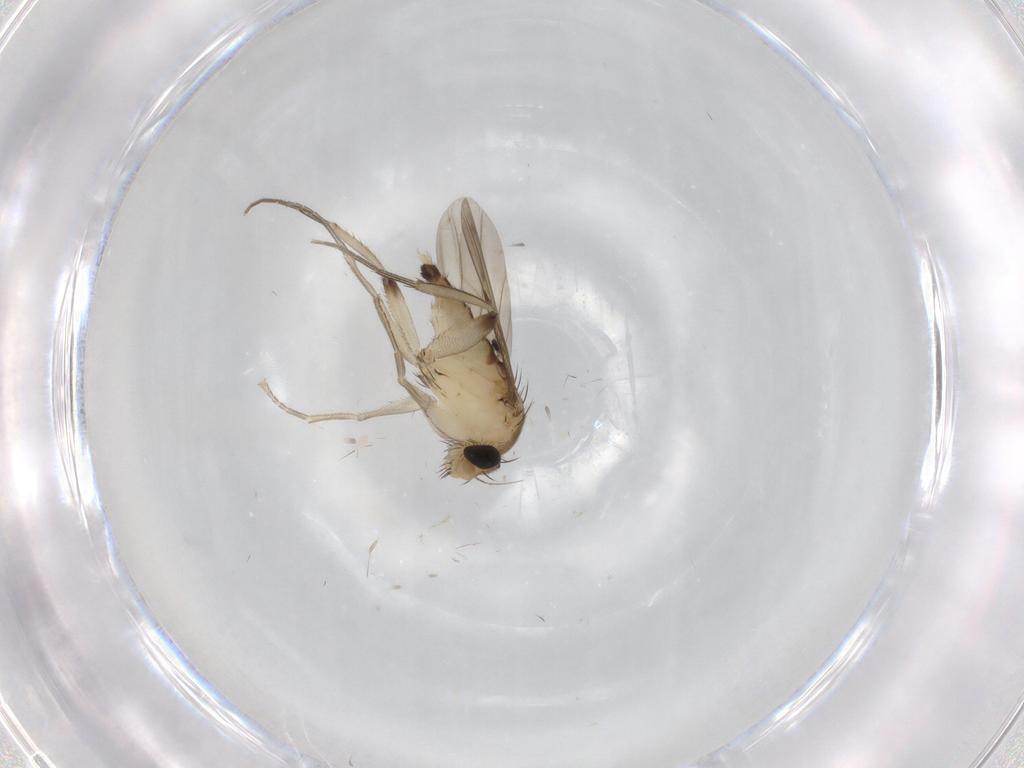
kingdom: Animalia
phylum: Arthropoda
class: Insecta
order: Diptera
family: Phoridae
